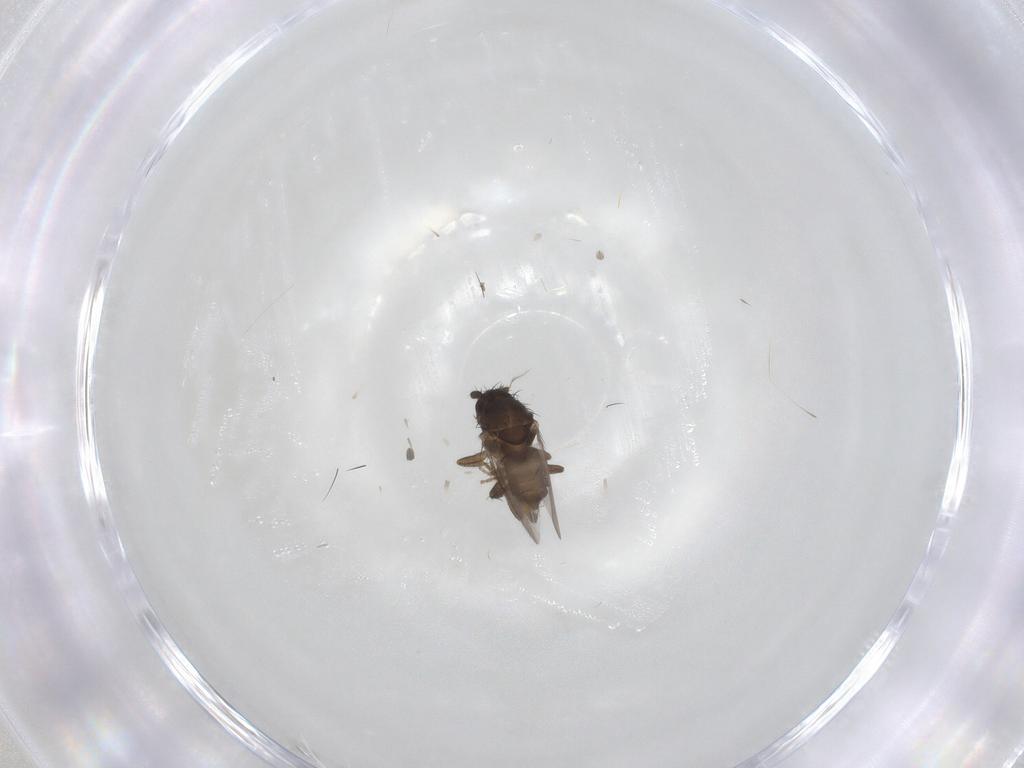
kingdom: Animalia
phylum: Arthropoda
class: Insecta
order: Diptera
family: Sphaeroceridae
